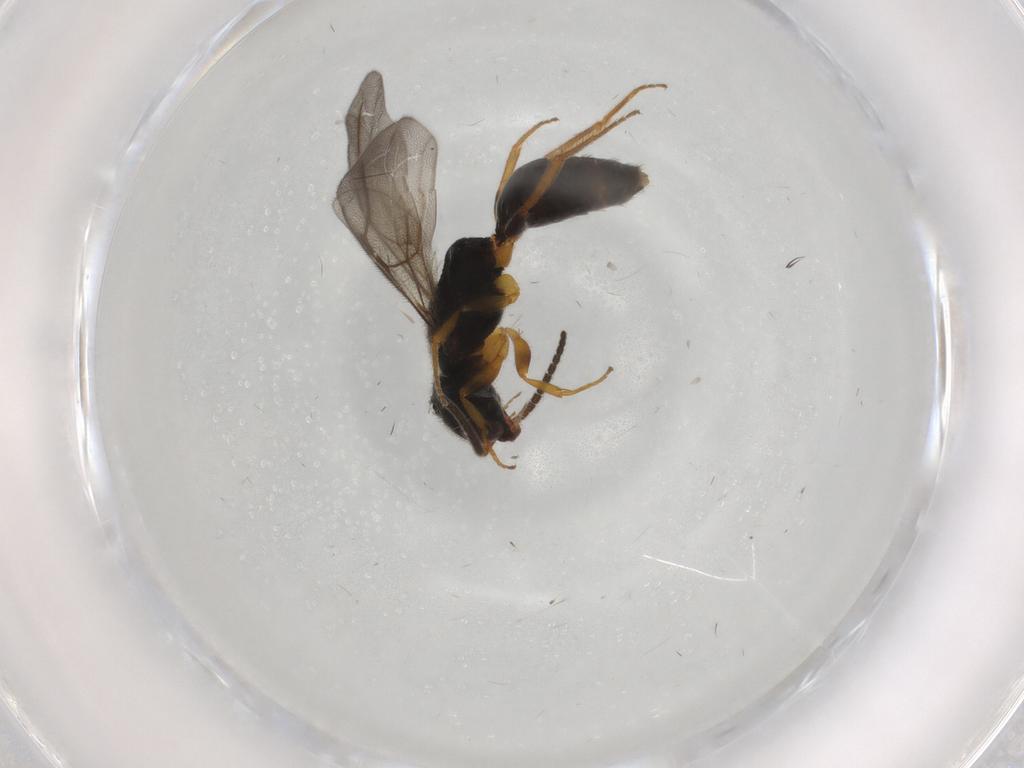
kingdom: Animalia
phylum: Arthropoda
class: Insecta
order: Hymenoptera
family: Bethylidae
